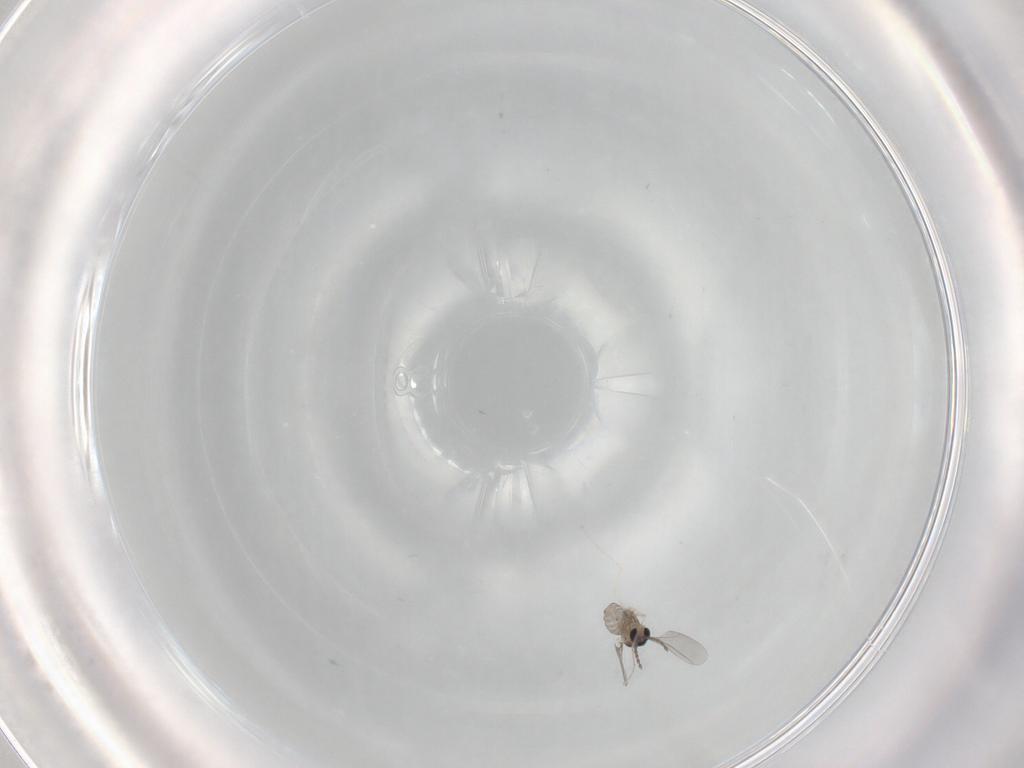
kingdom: Animalia
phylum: Arthropoda
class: Insecta
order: Diptera
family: Cecidomyiidae
